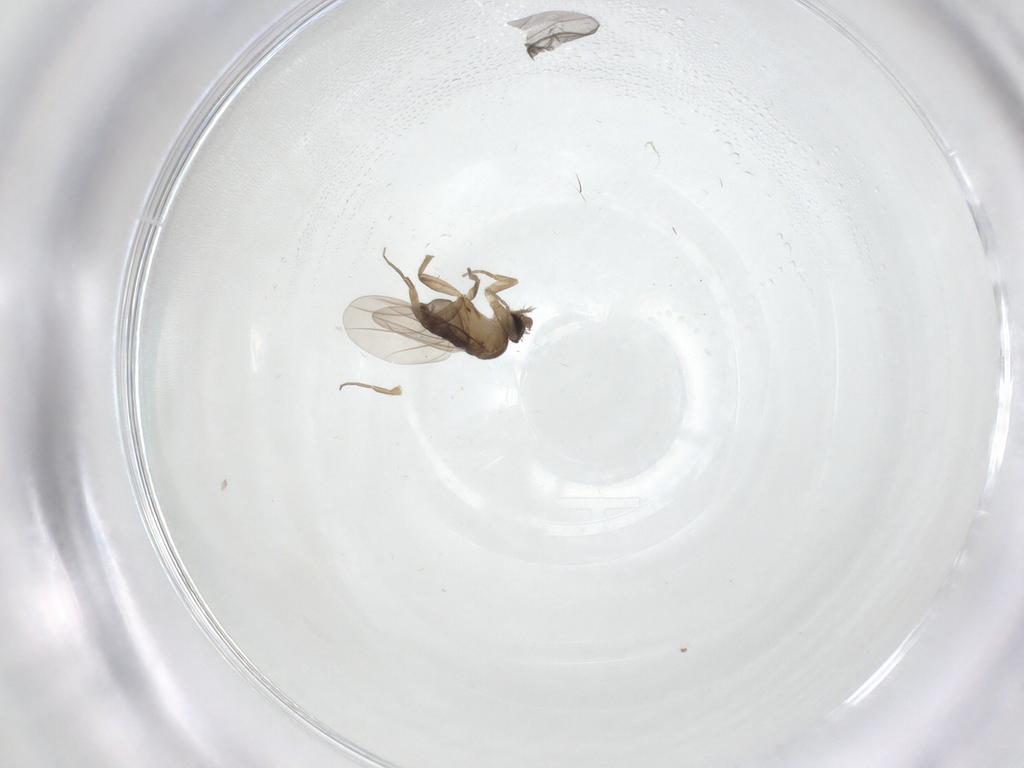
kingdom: Animalia
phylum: Arthropoda
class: Insecta
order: Diptera
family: Phoridae
